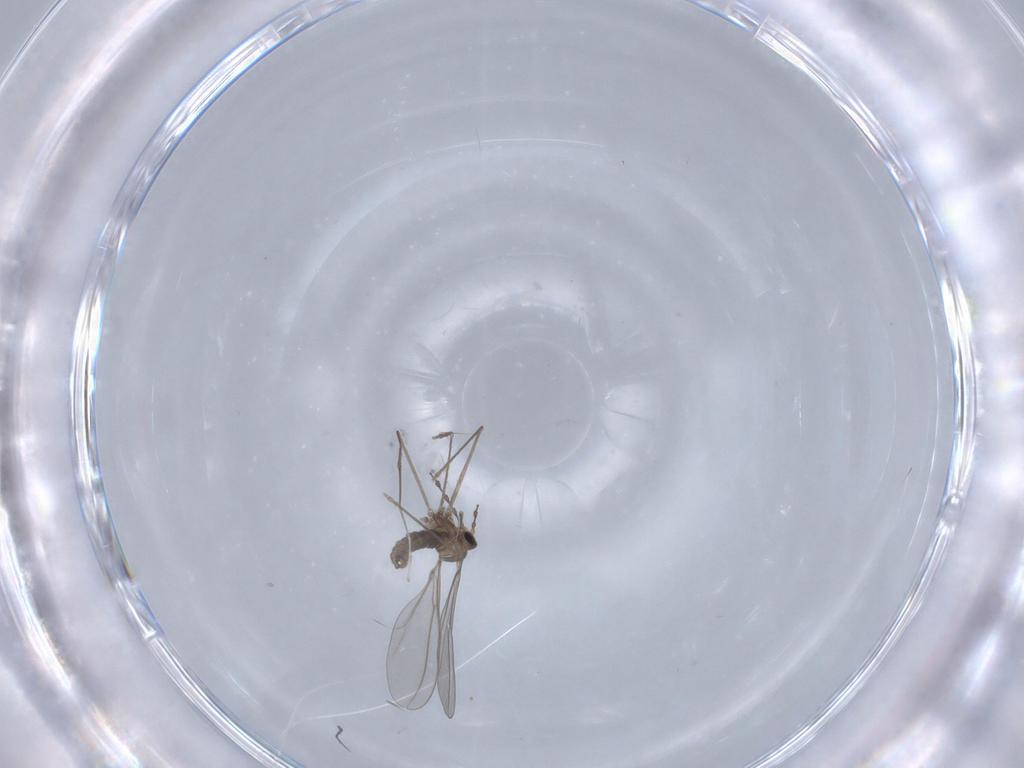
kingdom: Animalia
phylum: Arthropoda
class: Insecta
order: Diptera
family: Cecidomyiidae
